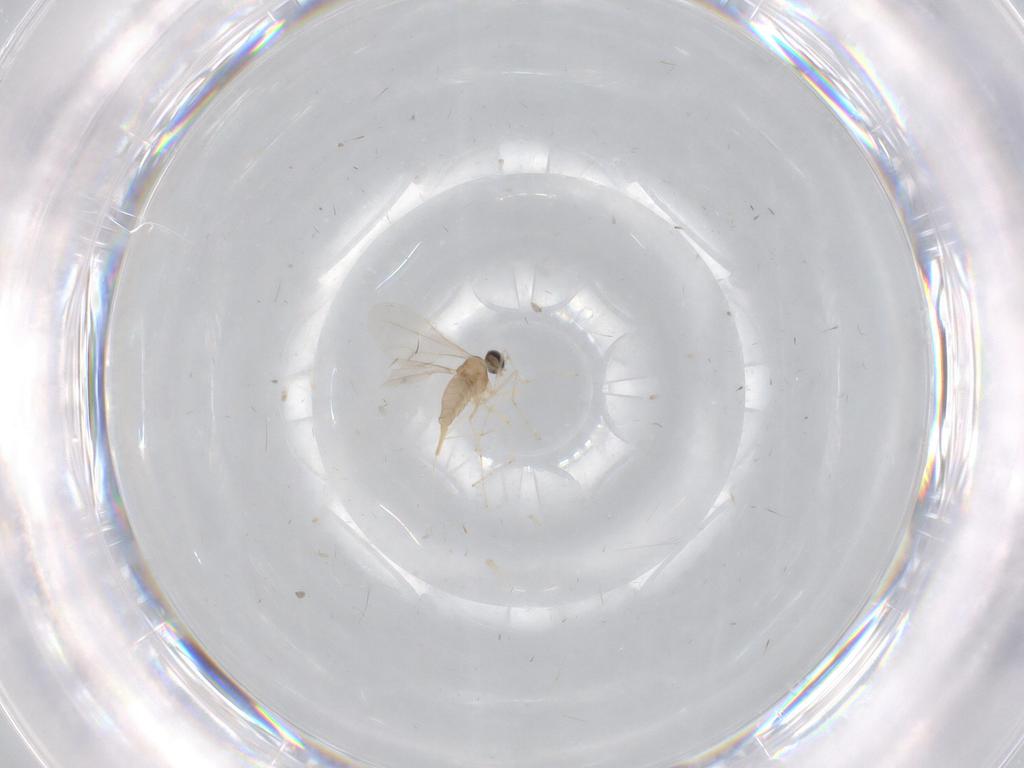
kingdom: Animalia
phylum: Arthropoda
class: Insecta
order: Diptera
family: Cecidomyiidae
